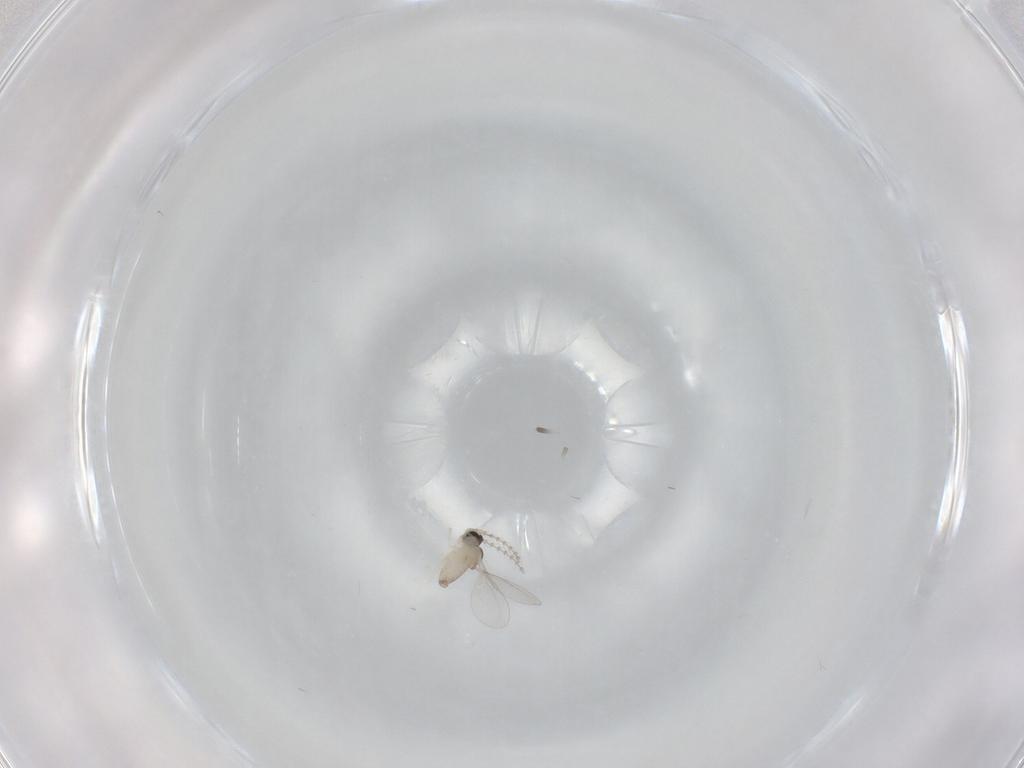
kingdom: Animalia
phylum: Arthropoda
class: Insecta
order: Diptera
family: Cecidomyiidae
